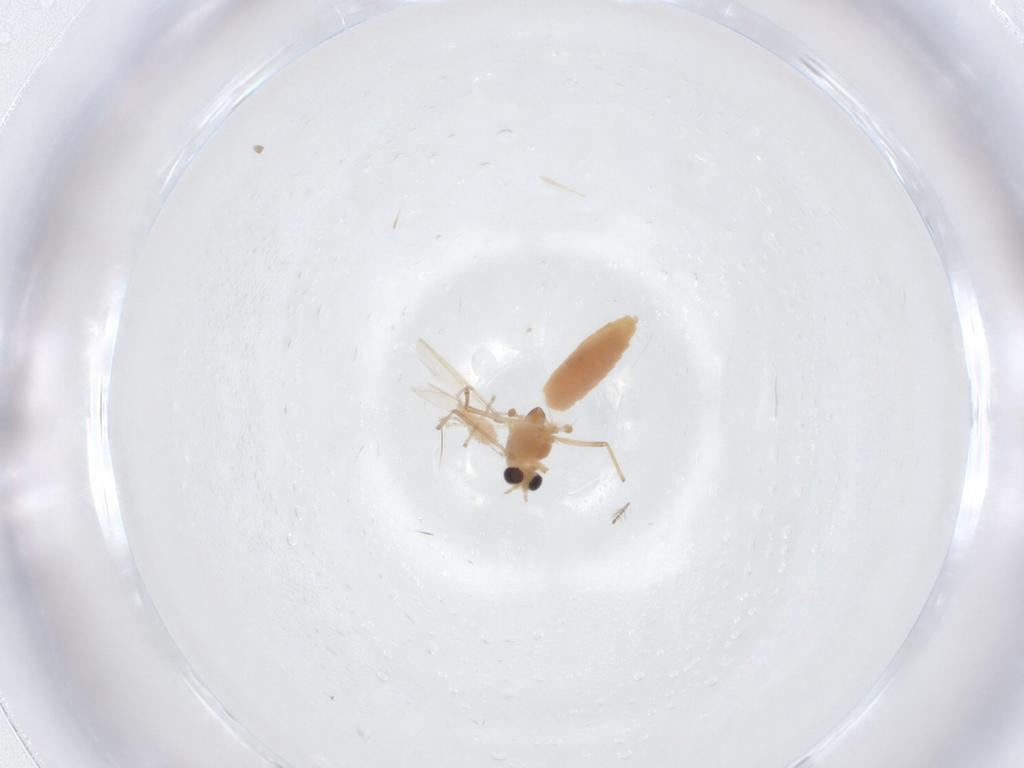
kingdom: Animalia
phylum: Arthropoda
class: Insecta
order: Diptera
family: Chironomidae
